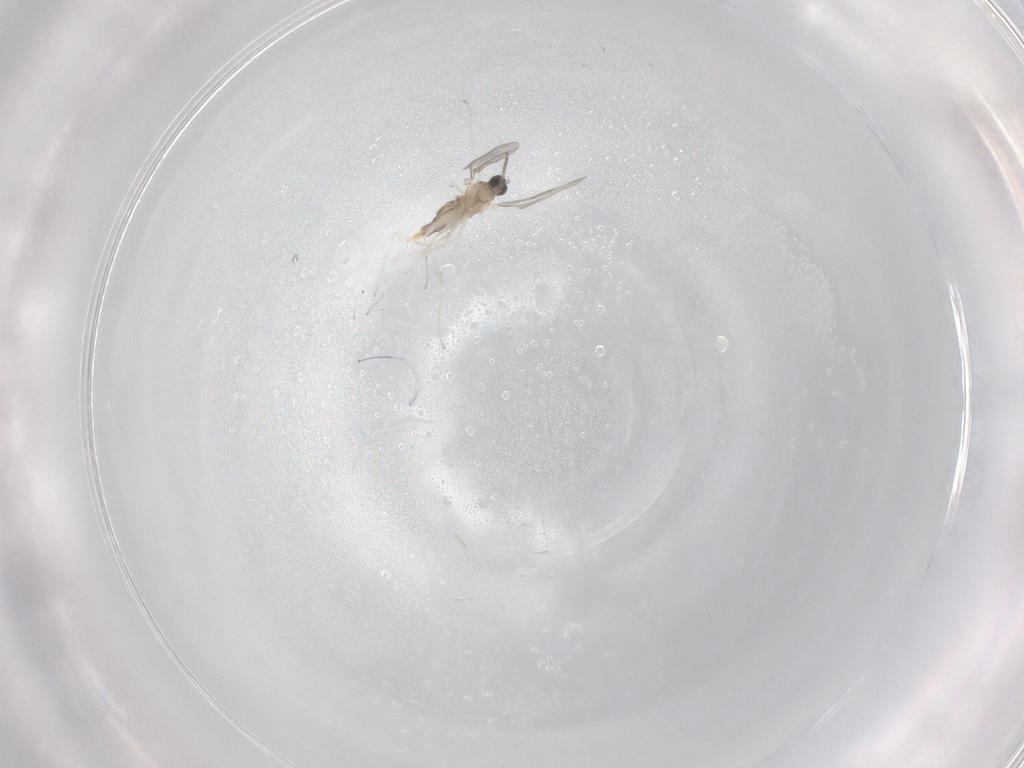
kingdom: Animalia
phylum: Arthropoda
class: Insecta
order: Diptera
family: Cecidomyiidae
